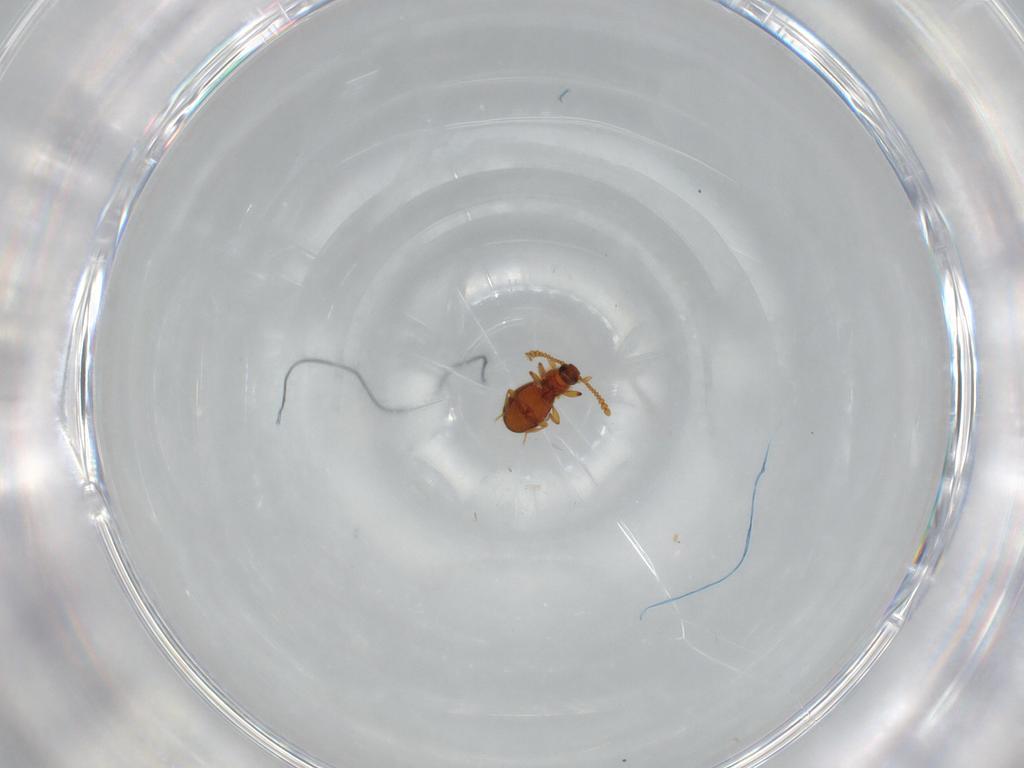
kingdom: Animalia
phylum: Arthropoda
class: Insecta
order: Coleoptera
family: Staphylinidae
